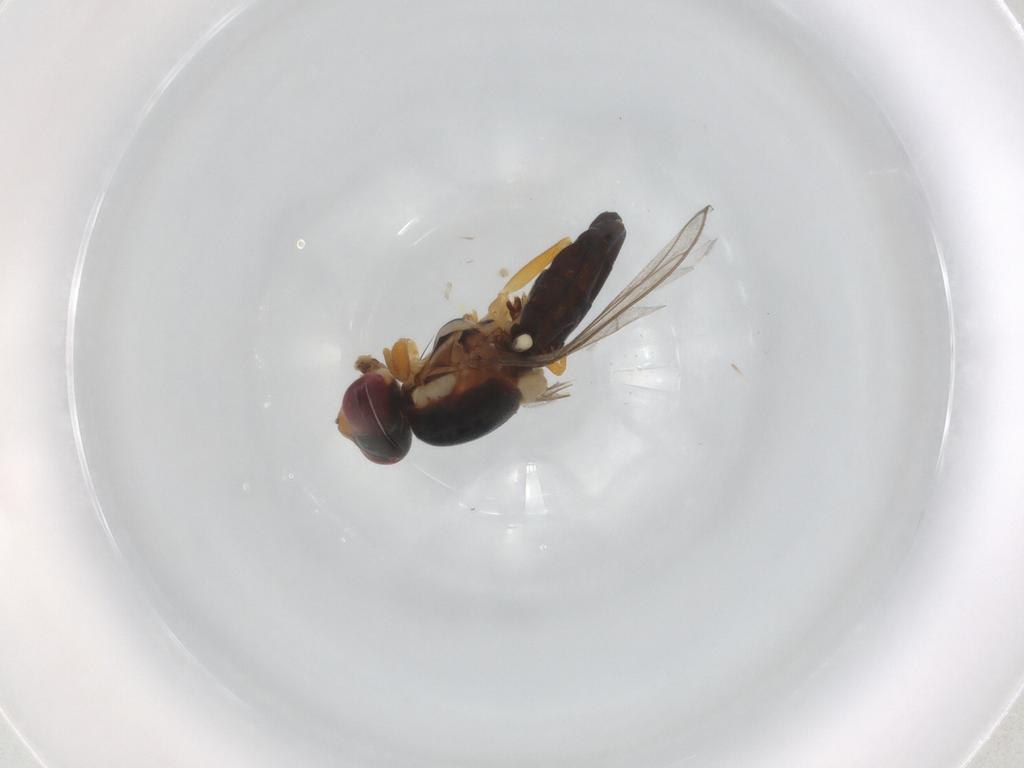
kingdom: Animalia
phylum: Arthropoda
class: Insecta
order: Diptera
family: Chloropidae
